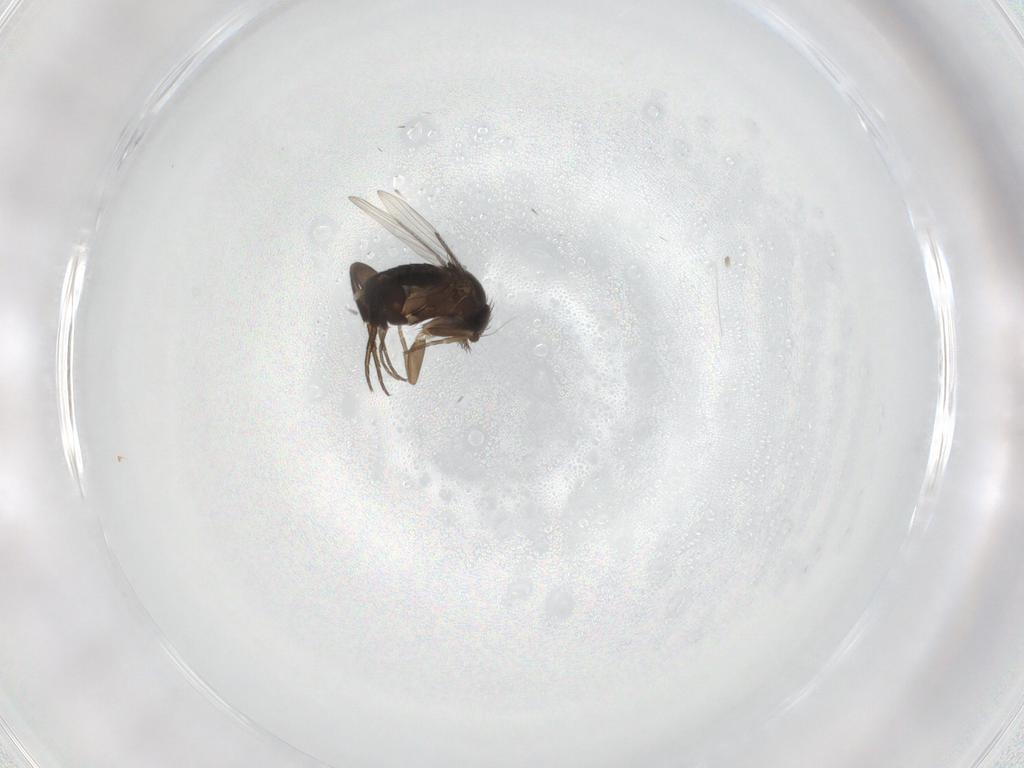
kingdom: Animalia
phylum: Arthropoda
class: Insecta
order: Diptera
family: Phoridae
